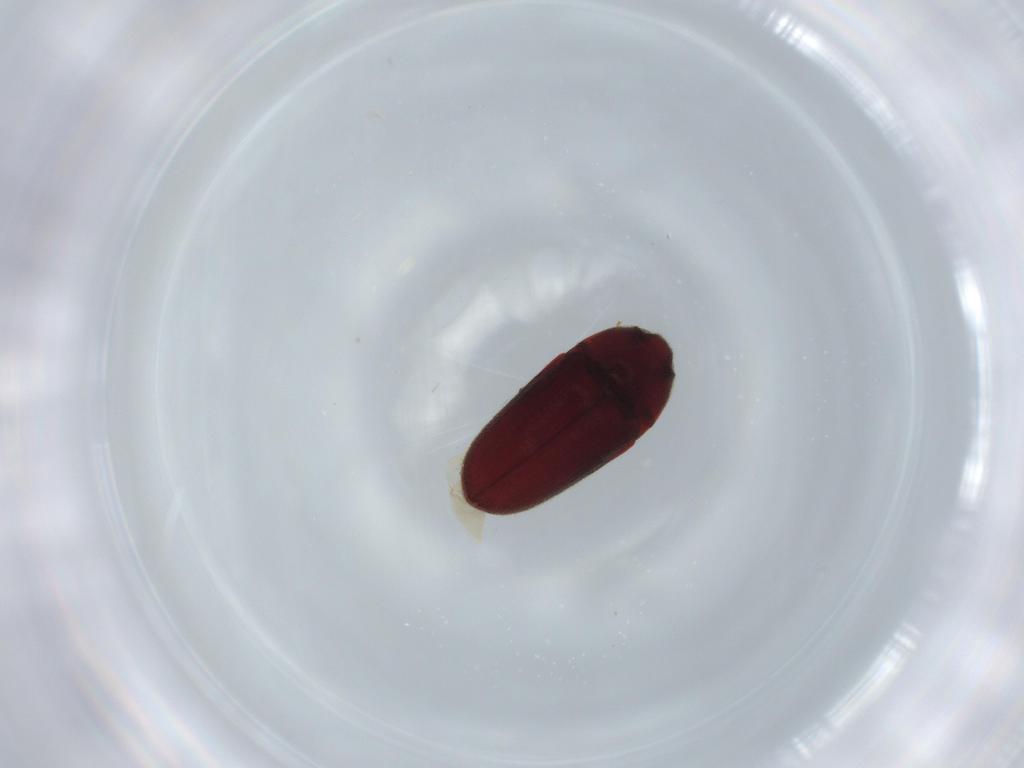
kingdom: Animalia
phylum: Arthropoda
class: Insecta
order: Coleoptera
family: Throscidae
